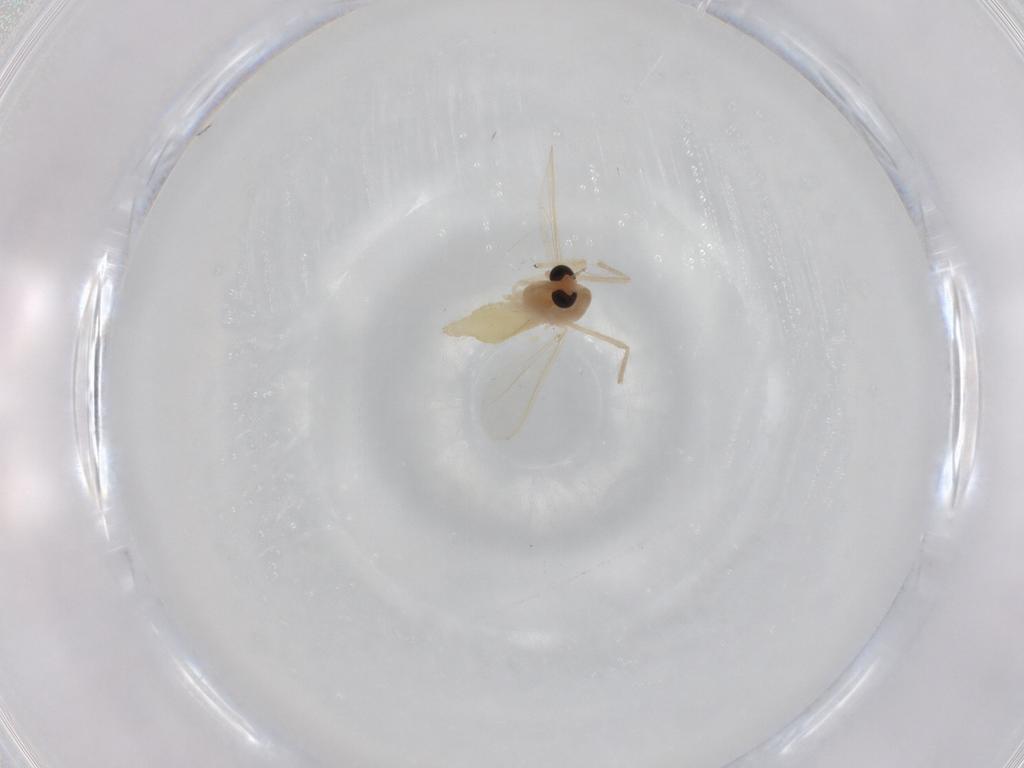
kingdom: Animalia
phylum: Arthropoda
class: Insecta
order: Diptera
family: Chironomidae
